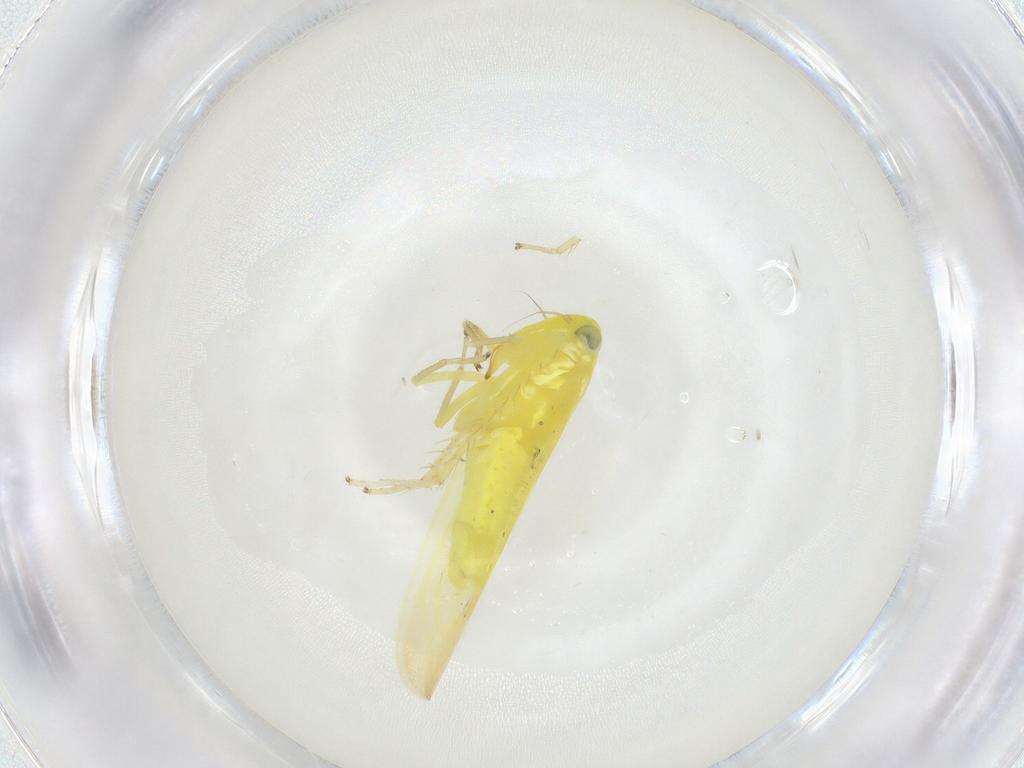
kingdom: Animalia
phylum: Arthropoda
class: Insecta
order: Hemiptera
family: Cicadellidae
